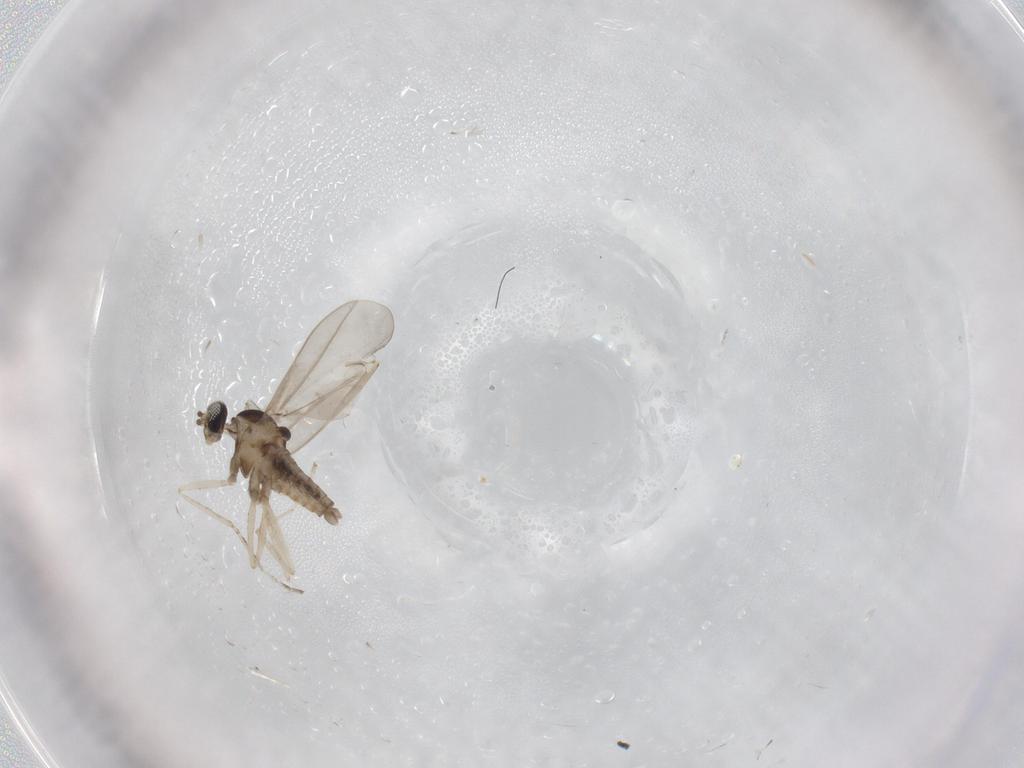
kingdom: Animalia
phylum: Arthropoda
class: Insecta
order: Diptera
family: Cecidomyiidae
